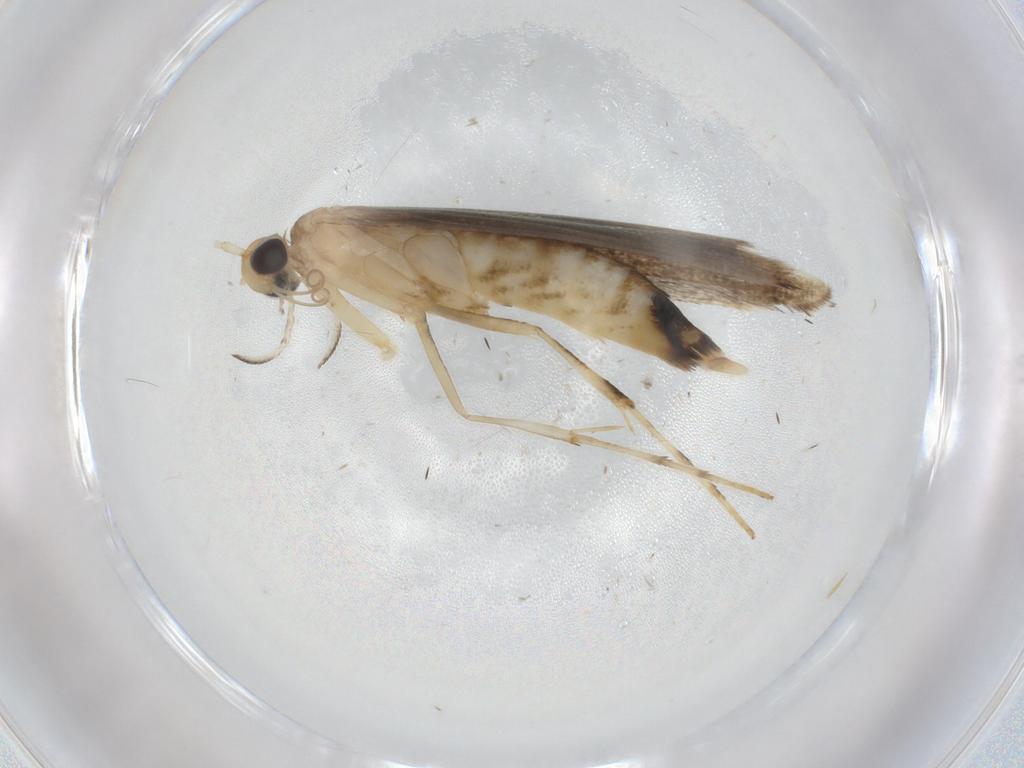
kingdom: Animalia
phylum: Arthropoda
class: Insecta
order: Lepidoptera
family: Gracillariidae
